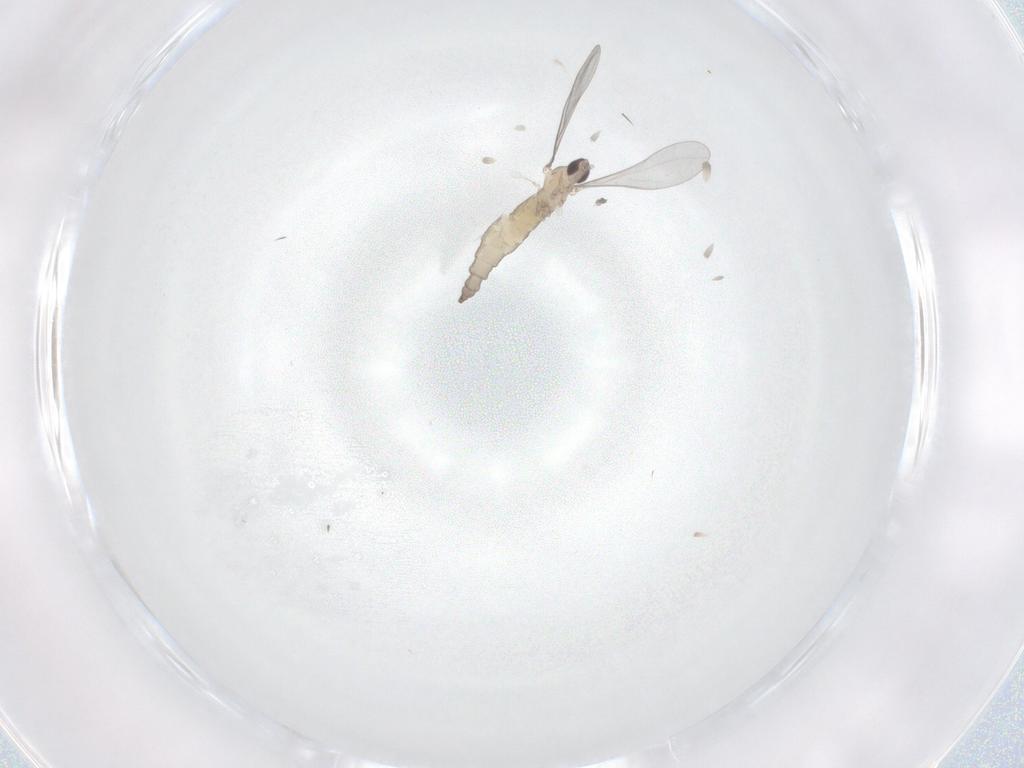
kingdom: Animalia
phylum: Arthropoda
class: Insecta
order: Diptera
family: Cecidomyiidae
